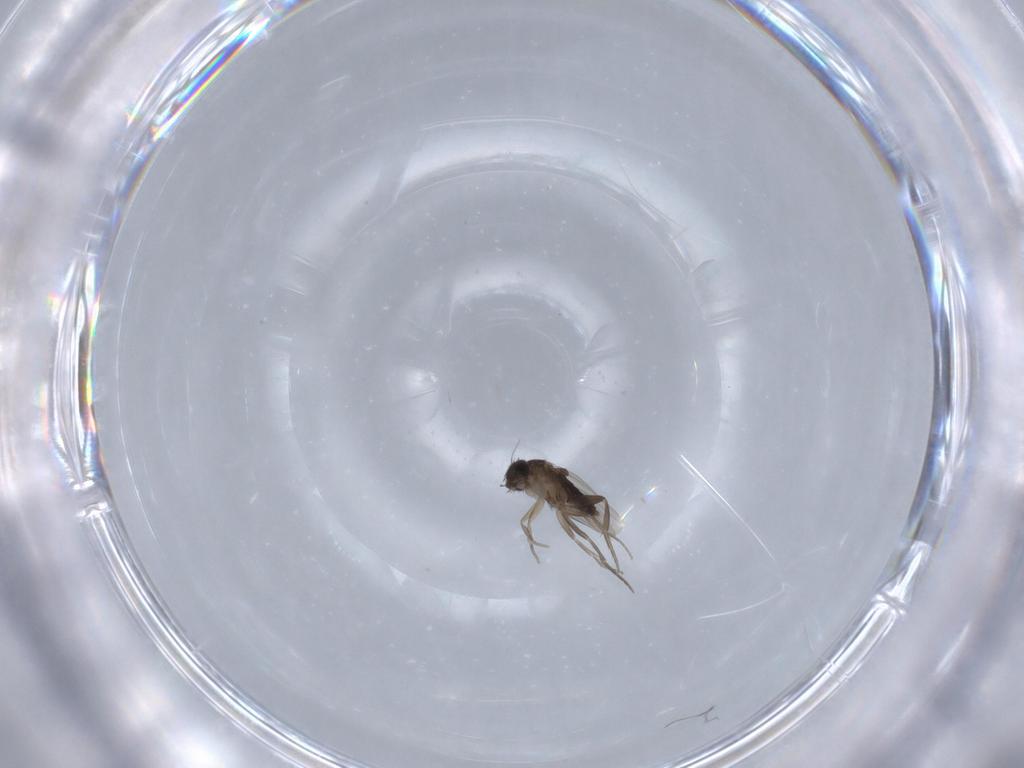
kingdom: Animalia
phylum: Arthropoda
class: Insecta
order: Diptera
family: Phoridae
